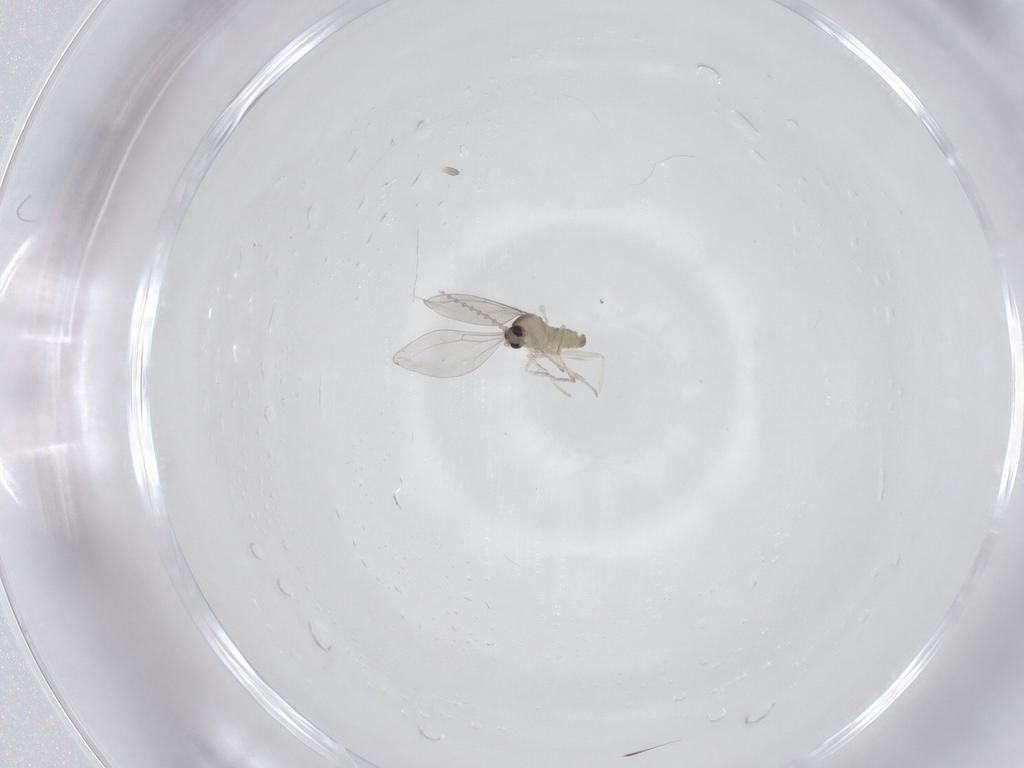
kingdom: Animalia
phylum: Arthropoda
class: Insecta
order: Diptera
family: Cecidomyiidae
